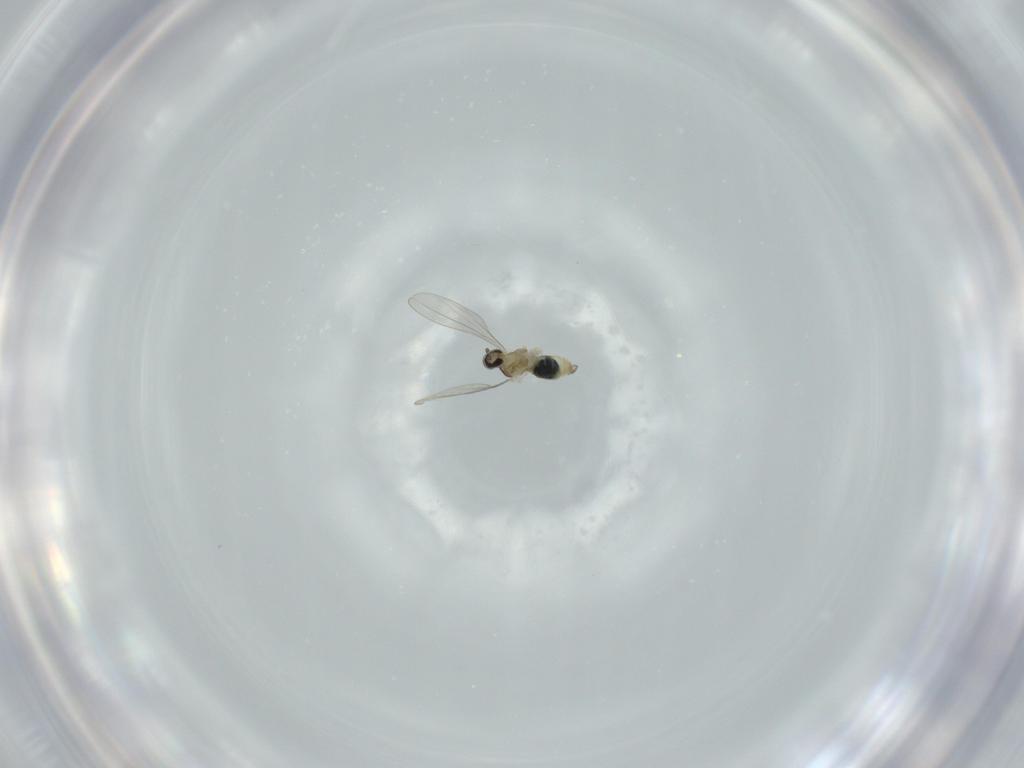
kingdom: Animalia
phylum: Arthropoda
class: Insecta
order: Diptera
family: Cecidomyiidae
